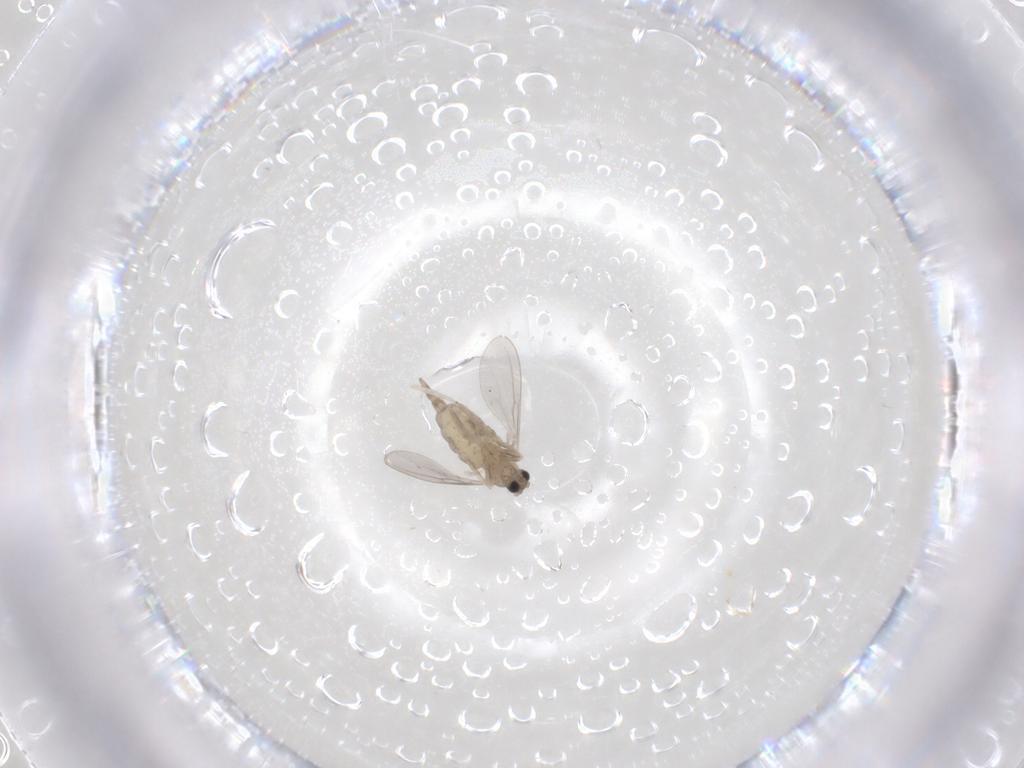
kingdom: Animalia
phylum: Arthropoda
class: Insecta
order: Diptera
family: Cecidomyiidae
